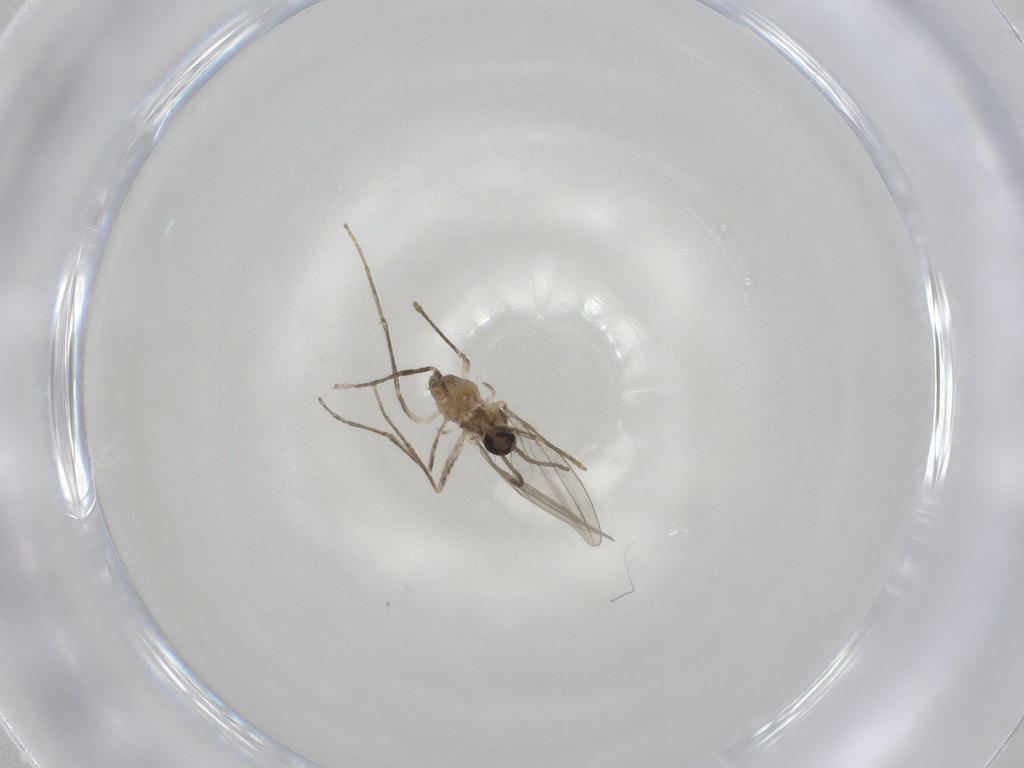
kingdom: Animalia
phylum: Arthropoda
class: Insecta
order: Diptera
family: Cecidomyiidae
